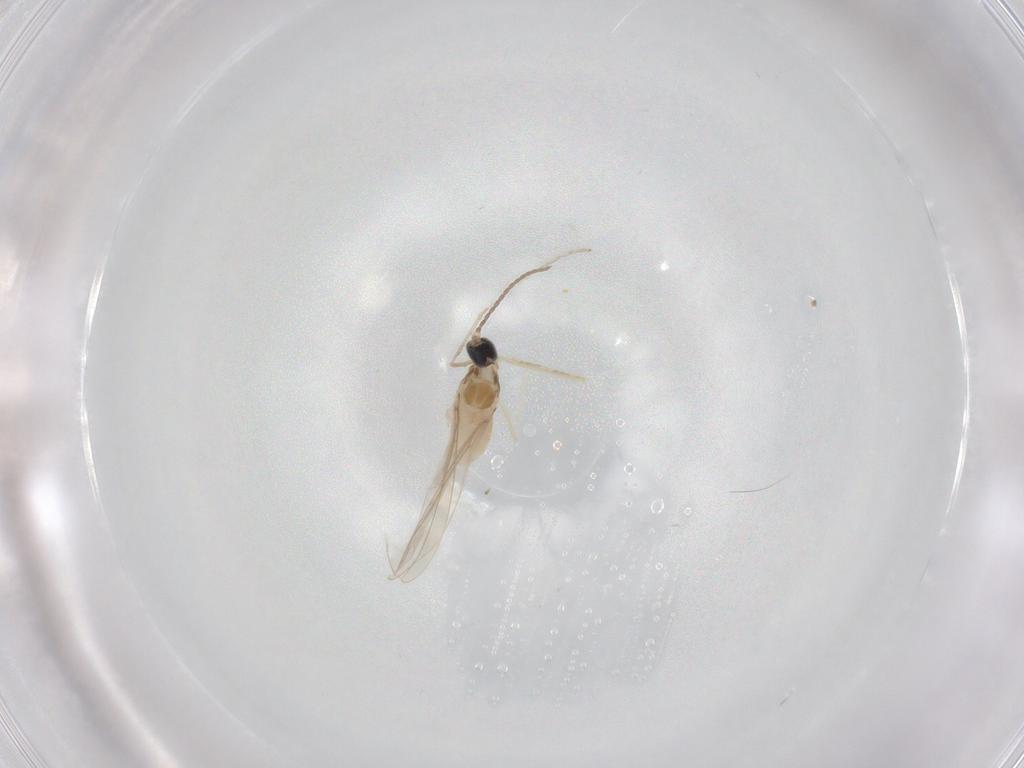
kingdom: Animalia
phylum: Arthropoda
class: Insecta
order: Diptera
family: Cecidomyiidae
